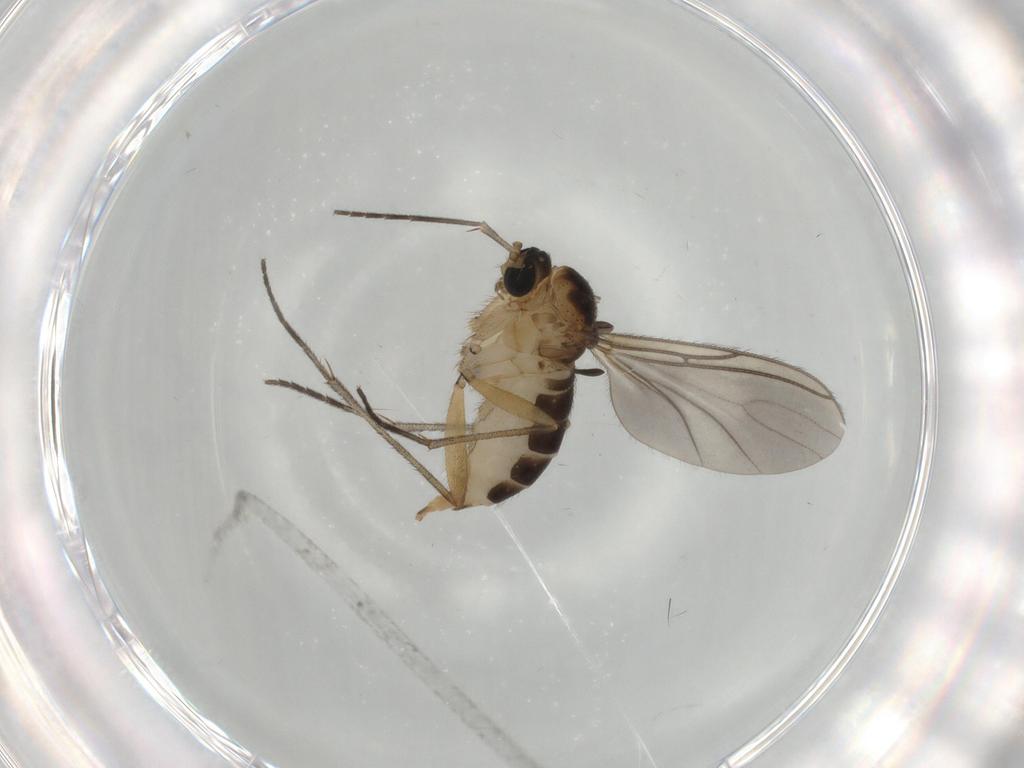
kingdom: Animalia
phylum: Arthropoda
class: Insecta
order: Diptera
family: Sciaridae
